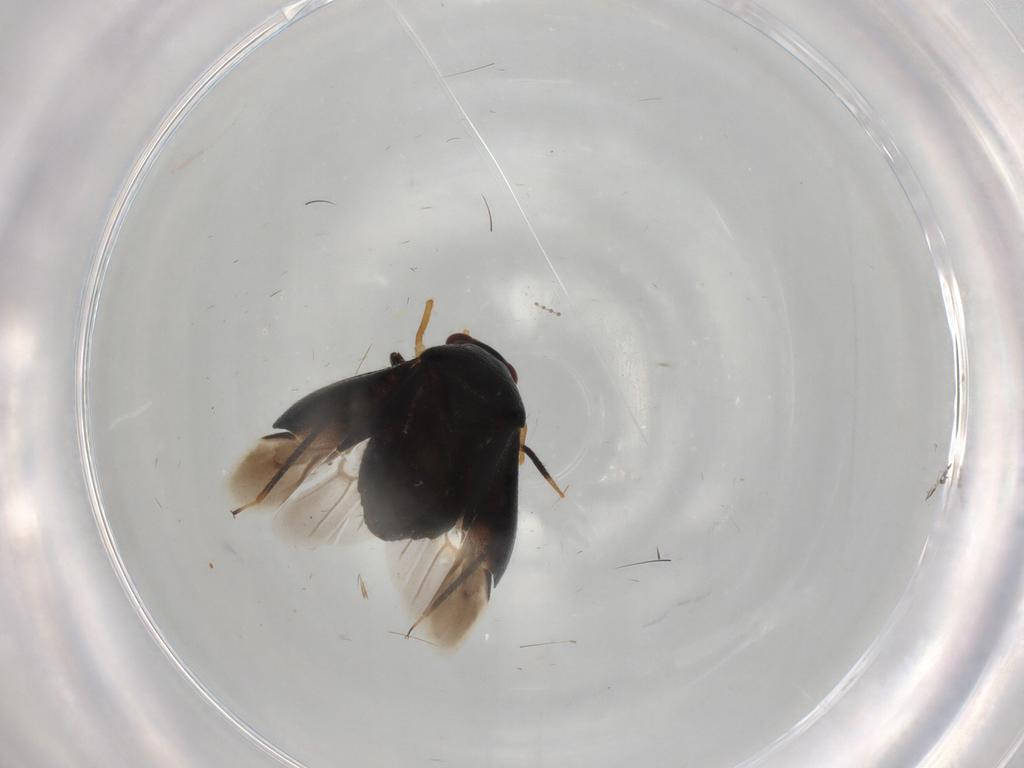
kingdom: Animalia
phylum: Arthropoda
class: Insecta
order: Hemiptera
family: Miridae
